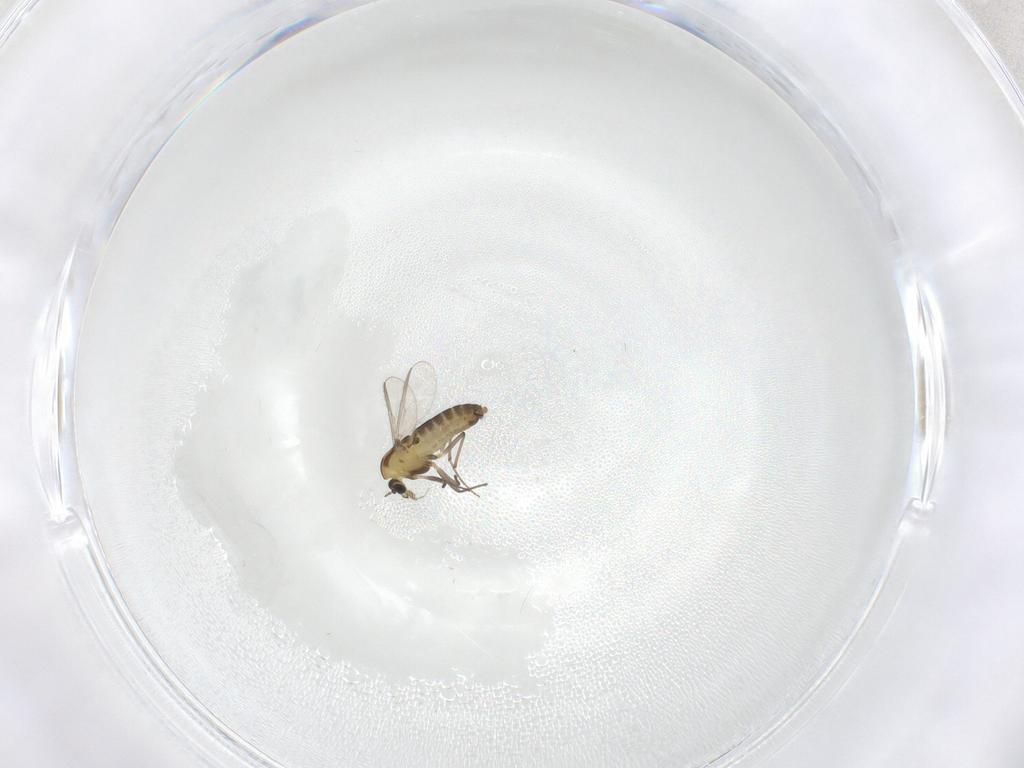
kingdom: Animalia
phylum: Arthropoda
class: Insecta
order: Diptera
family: Chironomidae
